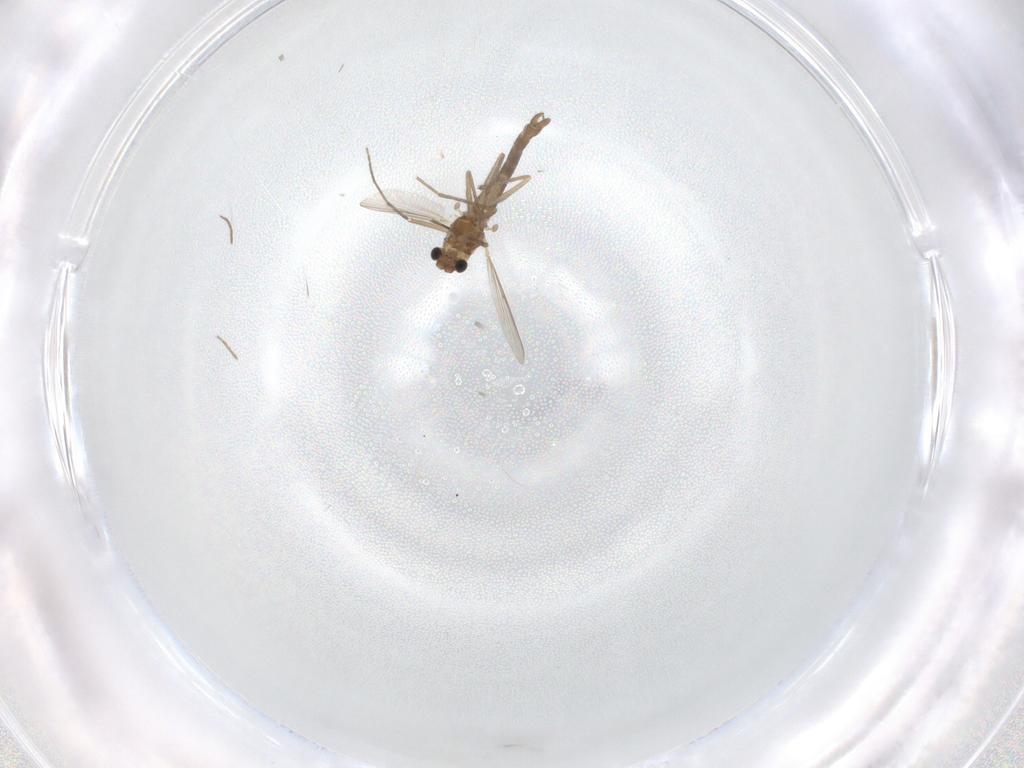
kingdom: Animalia
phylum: Arthropoda
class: Insecta
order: Diptera
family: Chironomidae
